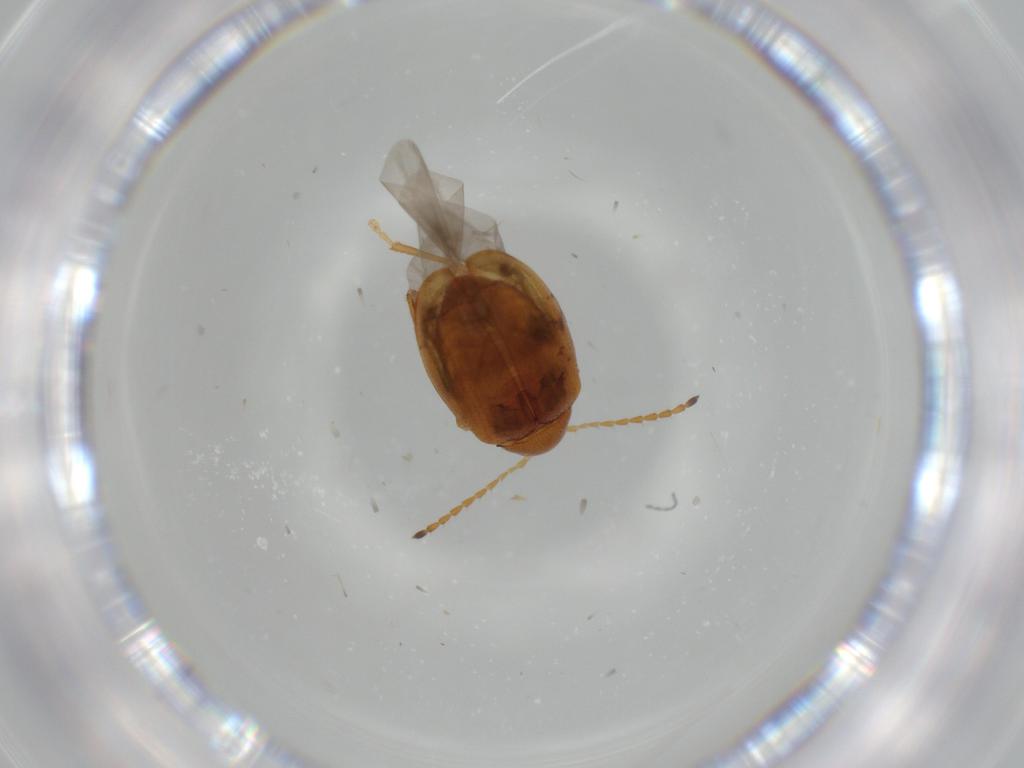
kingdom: Animalia
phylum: Arthropoda
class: Insecta
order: Coleoptera
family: Chrysomelidae
